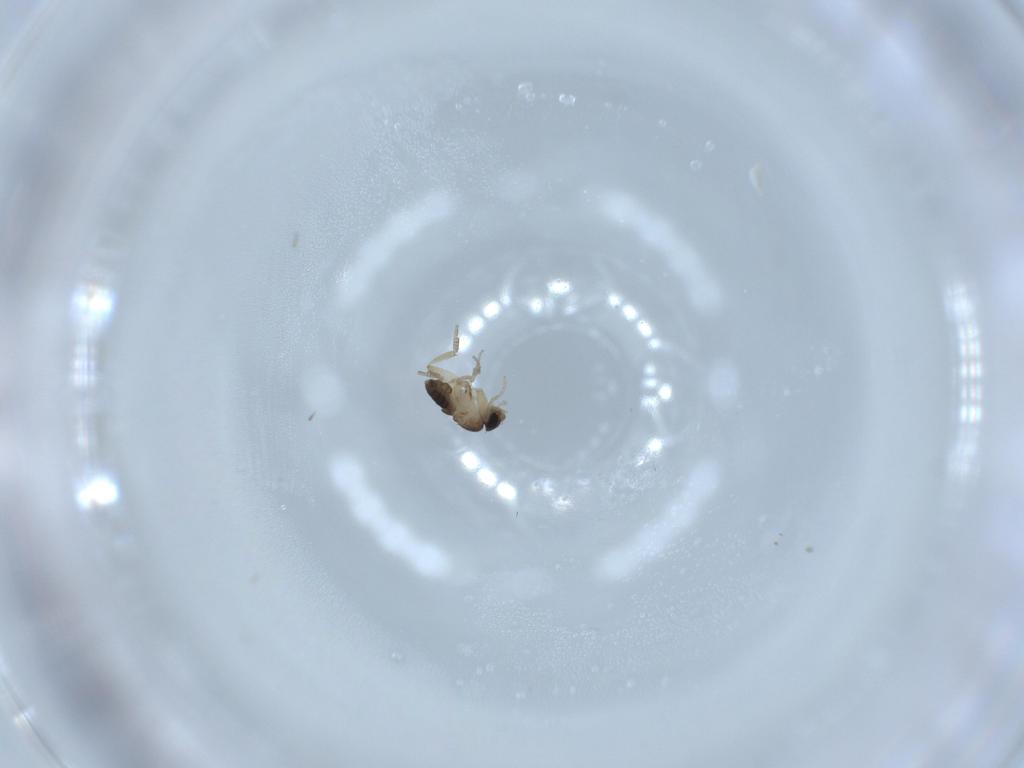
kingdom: Animalia
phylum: Arthropoda
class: Insecta
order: Diptera
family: Phoridae
